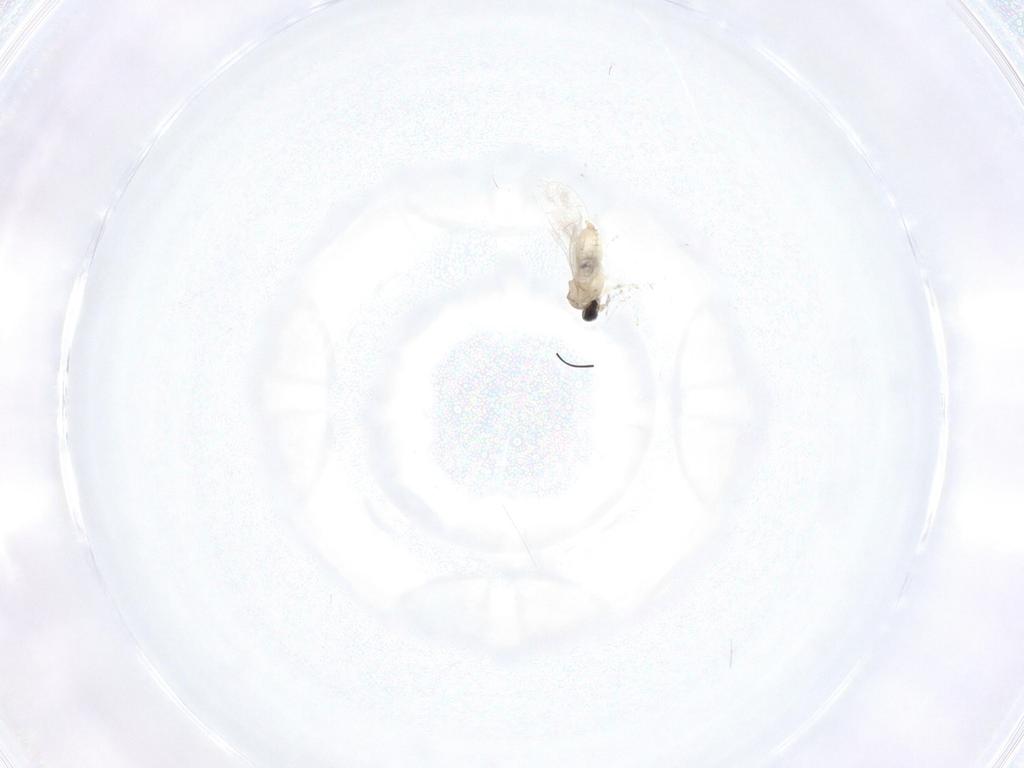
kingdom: Animalia
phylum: Arthropoda
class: Insecta
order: Diptera
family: Cecidomyiidae
